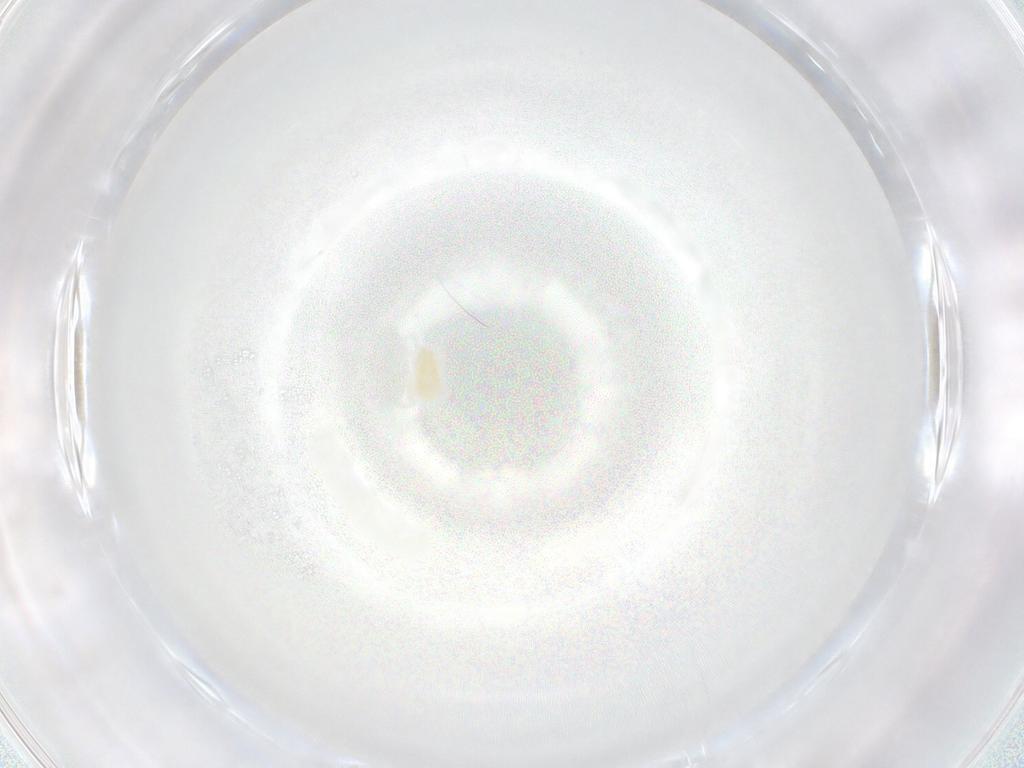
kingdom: Animalia
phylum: Arthropoda
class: Arachnida
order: Trombidiformes
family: Eupodidae
